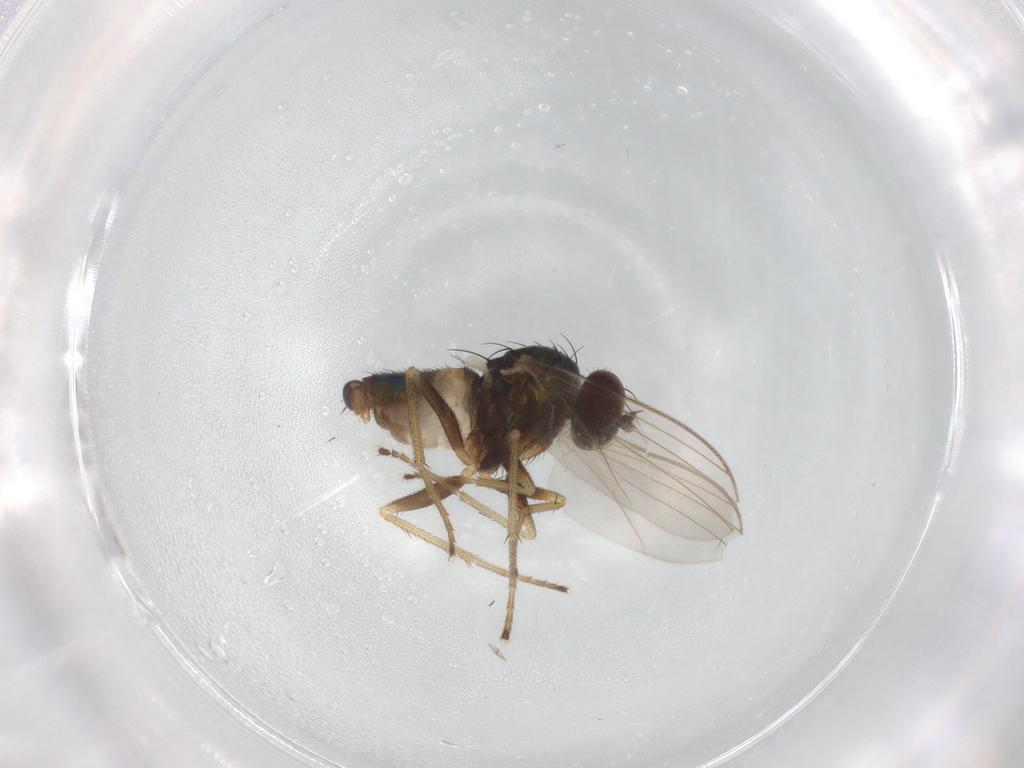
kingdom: Animalia
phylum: Arthropoda
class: Insecta
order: Diptera
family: Dolichopodidae
